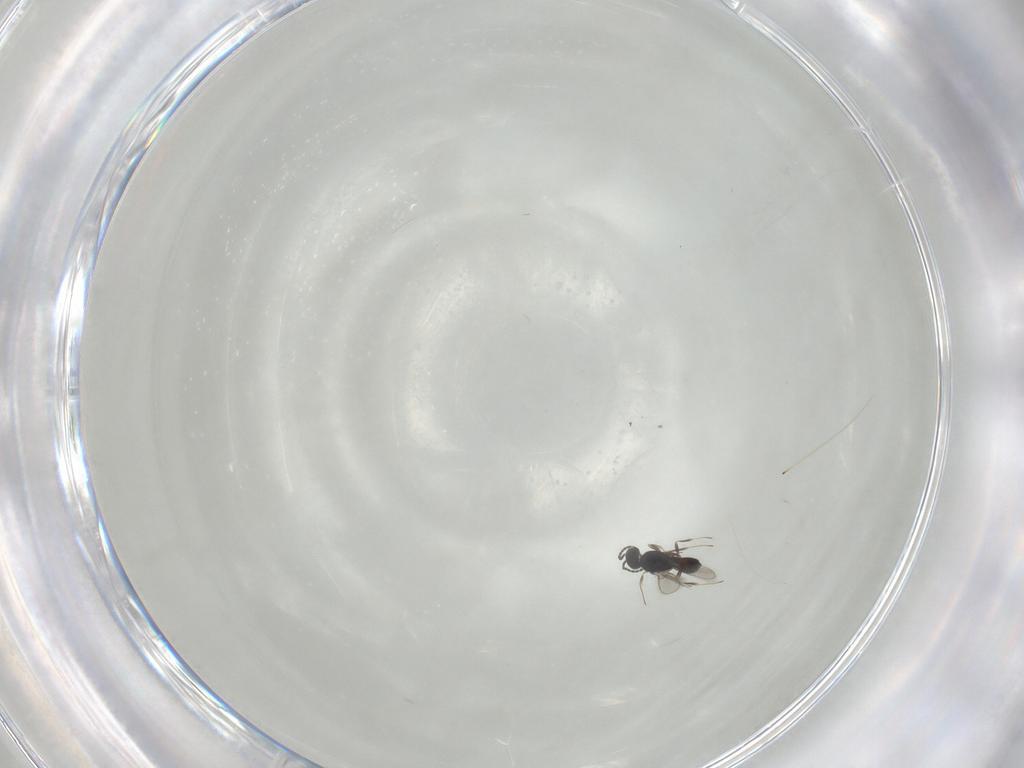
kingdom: Animalia
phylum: Arthropoda
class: Insecta
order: Hymenoptera
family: Scelionidae
